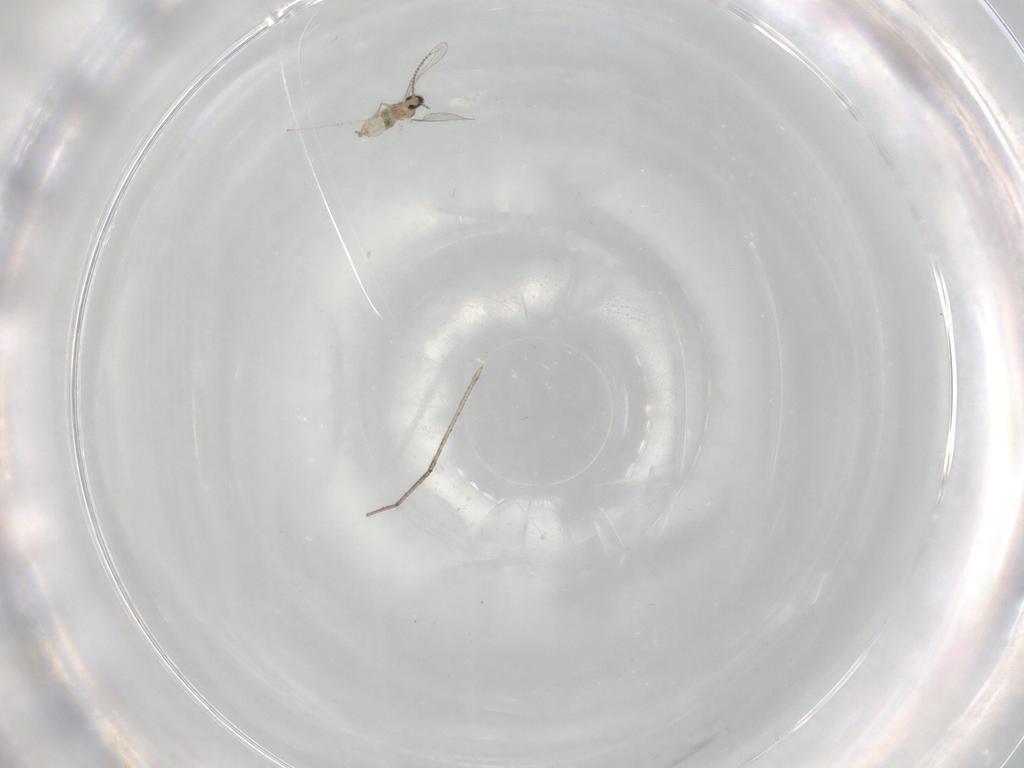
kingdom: Animalia
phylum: Arthropoda
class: Insecta
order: Diptera
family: Cecidomyiidae
